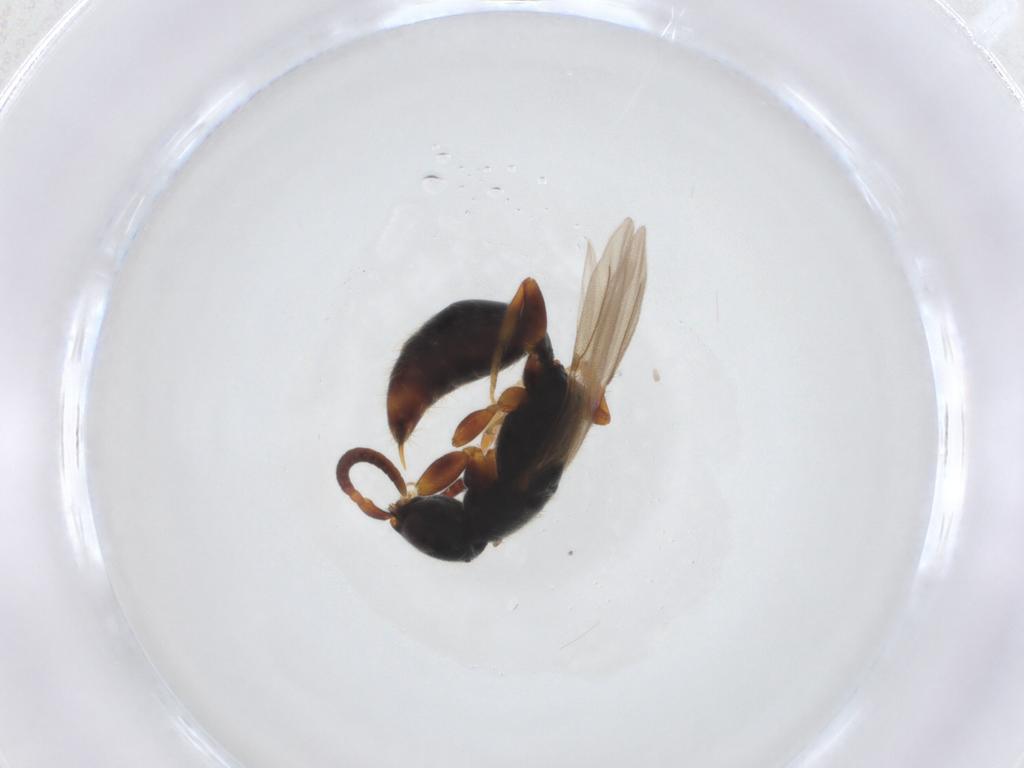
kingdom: Animalia
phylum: Arthropoda
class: Insecta
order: Hymenoptera
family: Bethylidae
